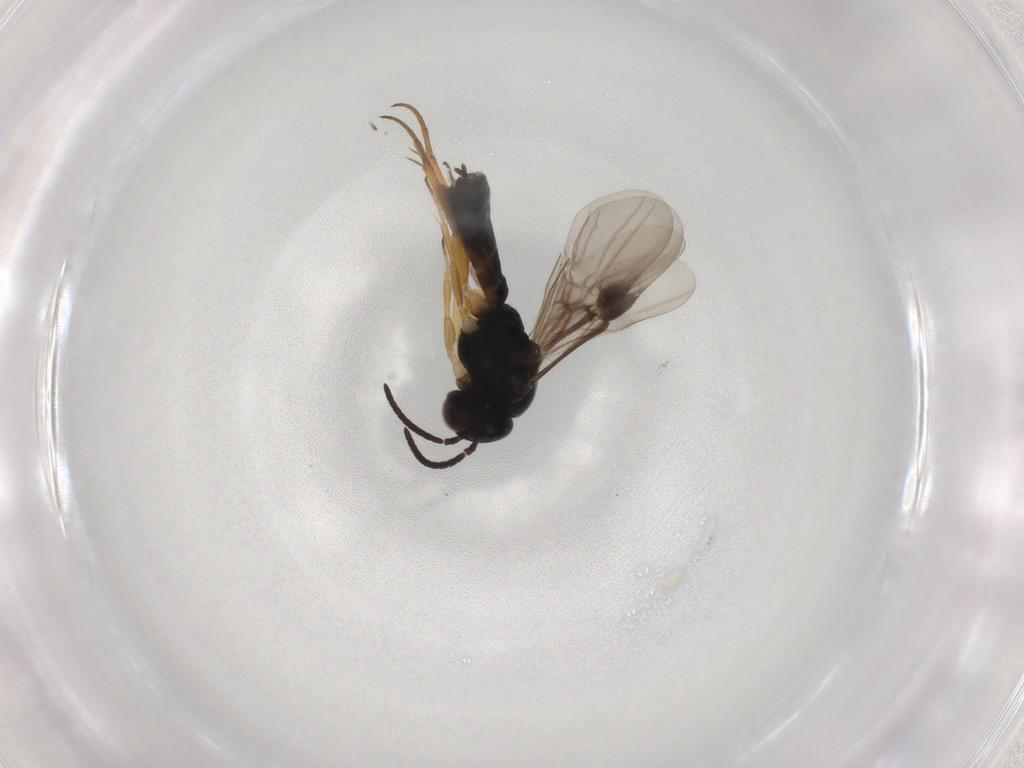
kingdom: Animalia
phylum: Arthropoda
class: Insecta
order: Hymenoptera
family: Braconidae
